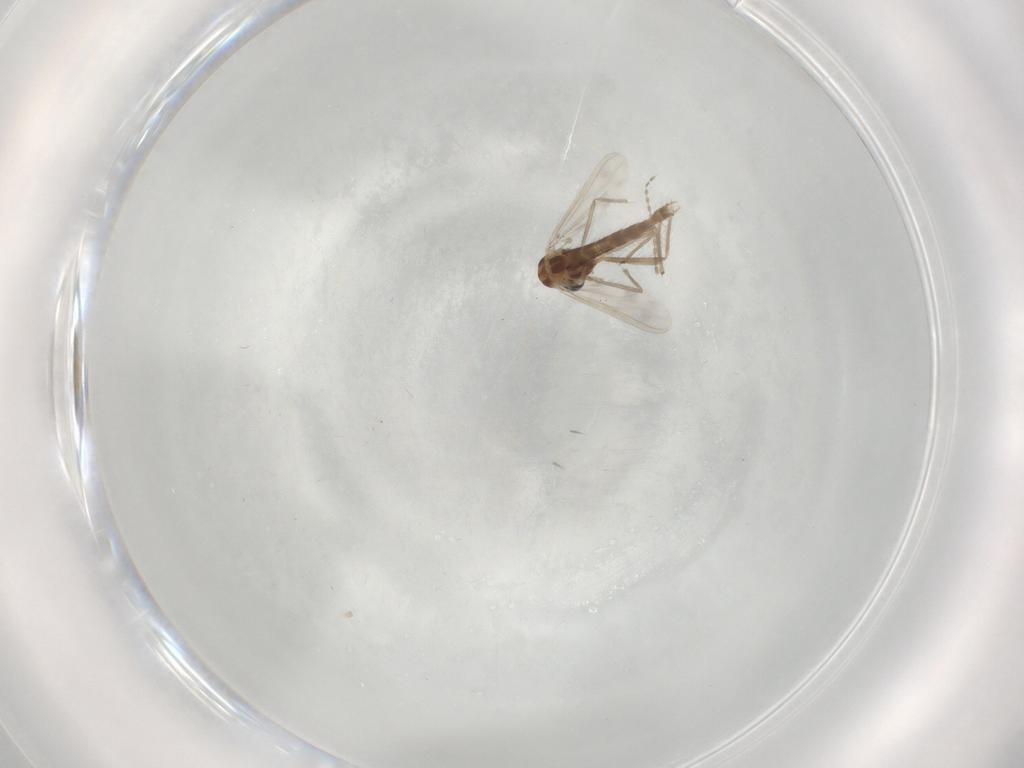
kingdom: Animalia
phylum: Arthropoda
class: Insecta
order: Diptera
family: Chironomidae
